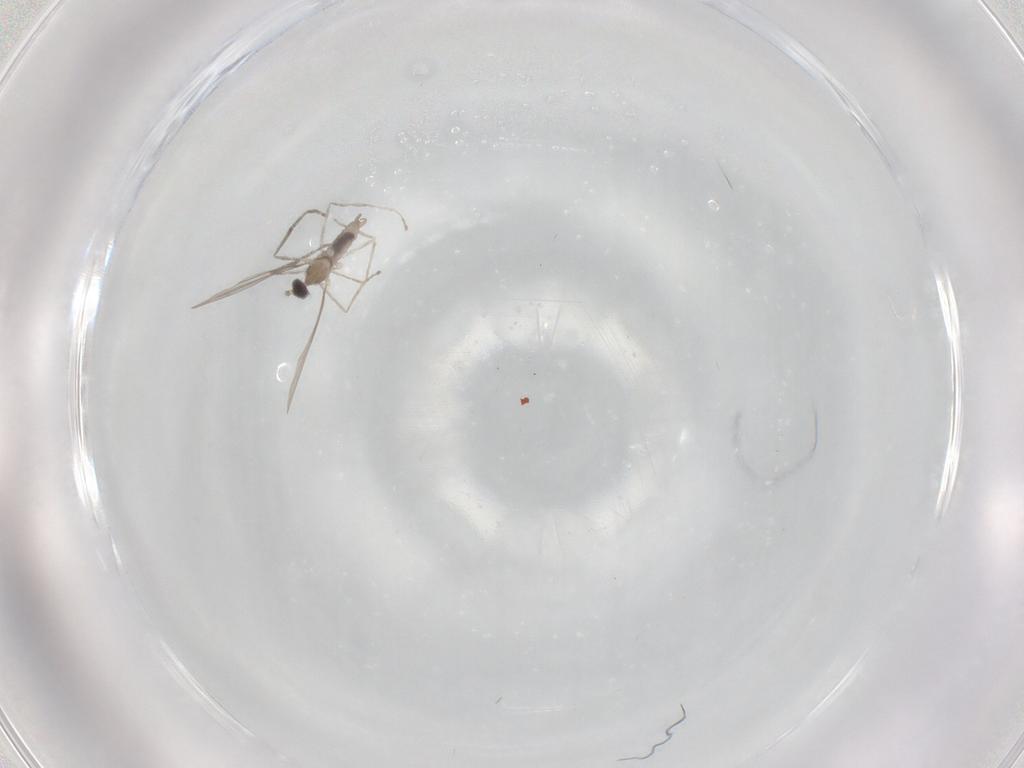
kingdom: Animalia
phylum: Arthropoda
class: Insecta
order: Diptera
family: Cecidomyiidae
